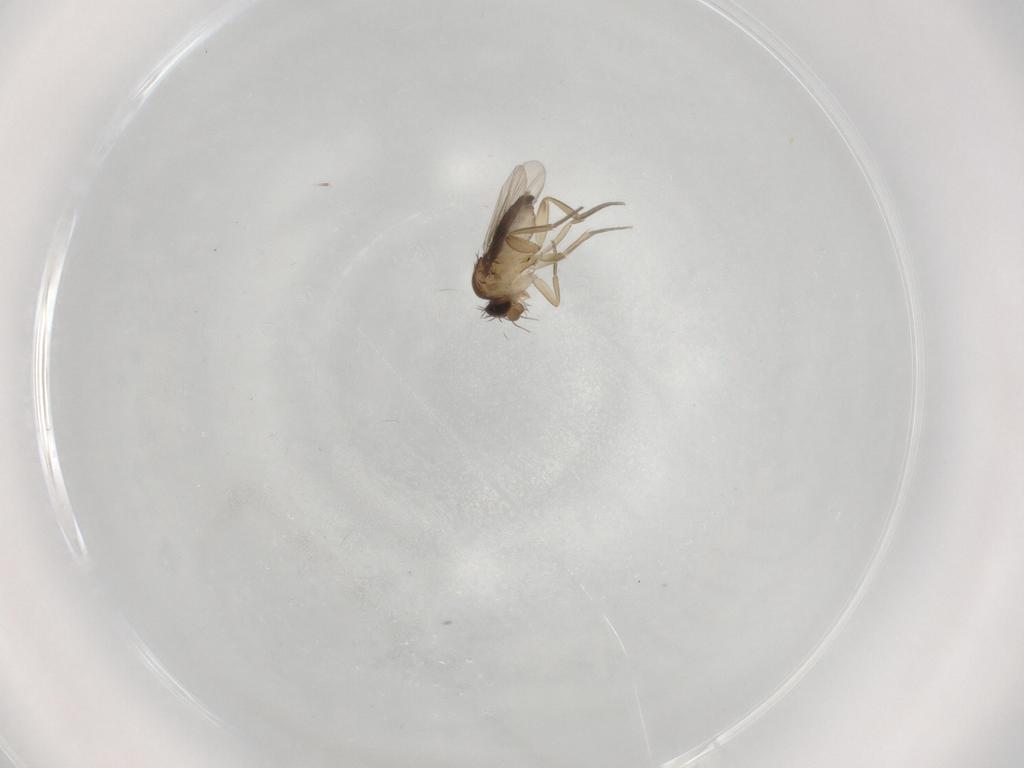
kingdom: Animalia
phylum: Arthropoda
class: Insecta
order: Diptera
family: Phoridae
